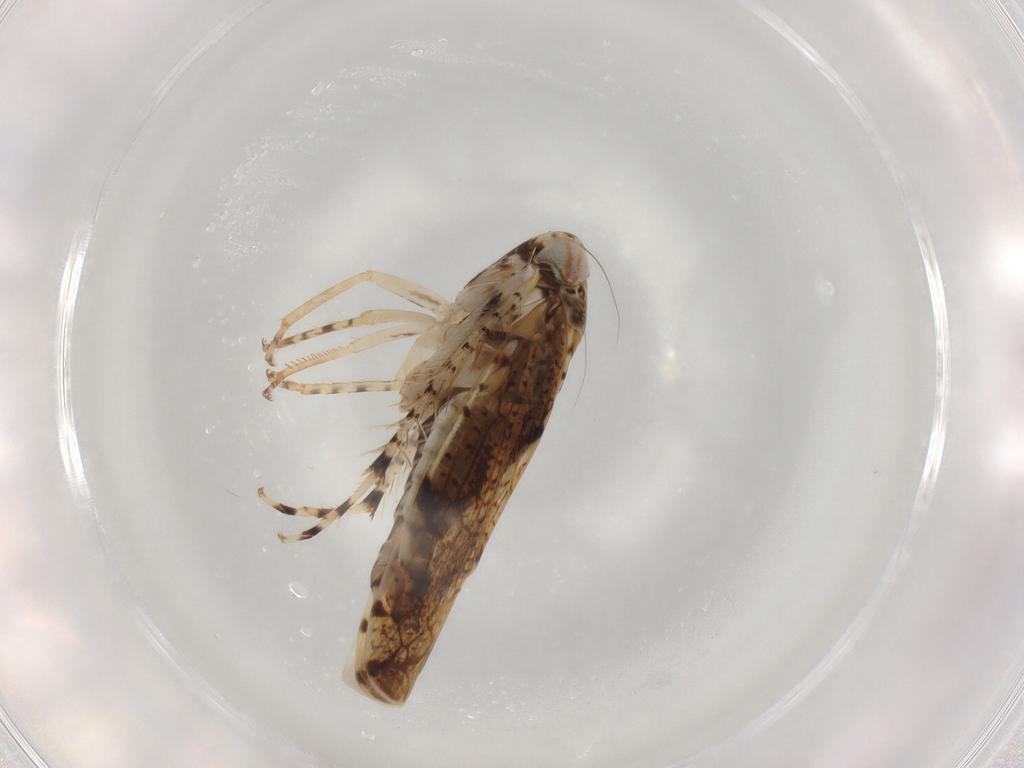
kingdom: Animalia
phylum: Arthropoda
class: Insecta
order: Hemiptera
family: Cicadellidae
